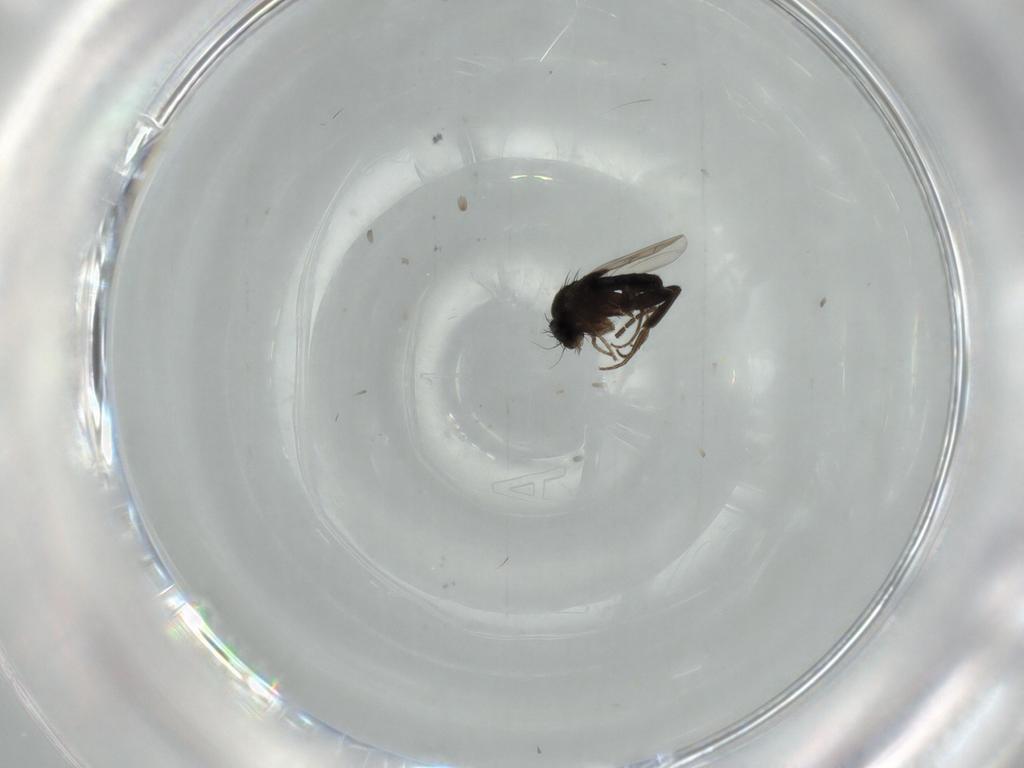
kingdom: Animalia
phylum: Arthropoda
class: Insecta
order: Diptera
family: Phoridae
